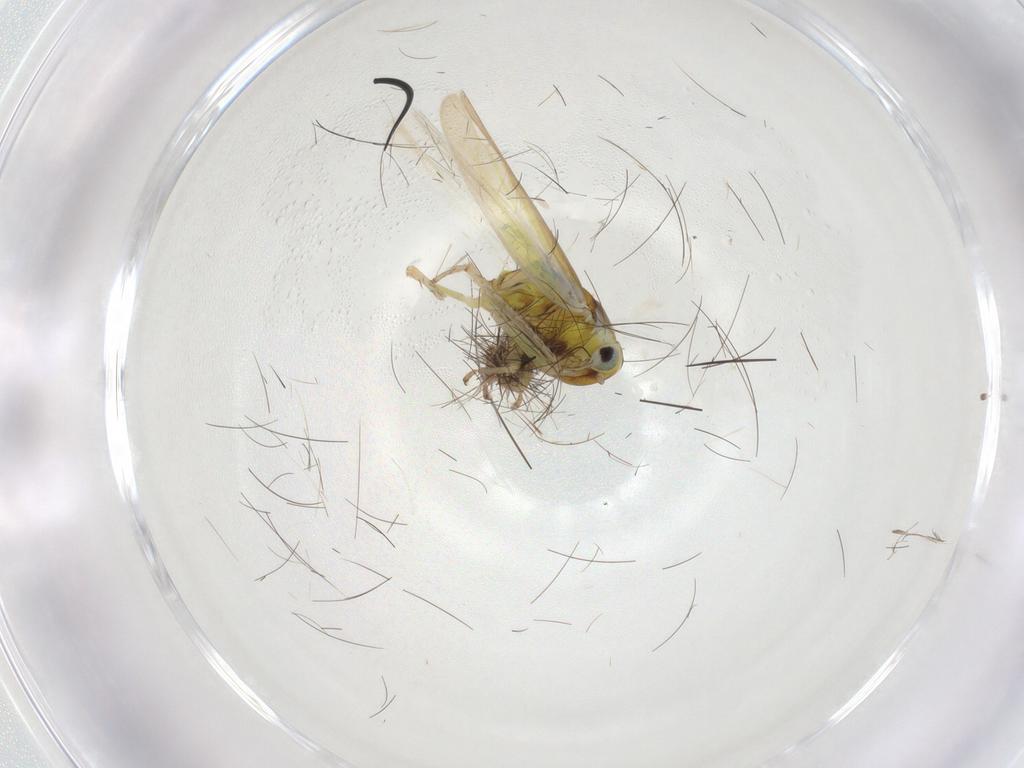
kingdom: Animalia
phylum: Arthropoda
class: Insecta
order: Hemiptera
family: Cicadellidae
